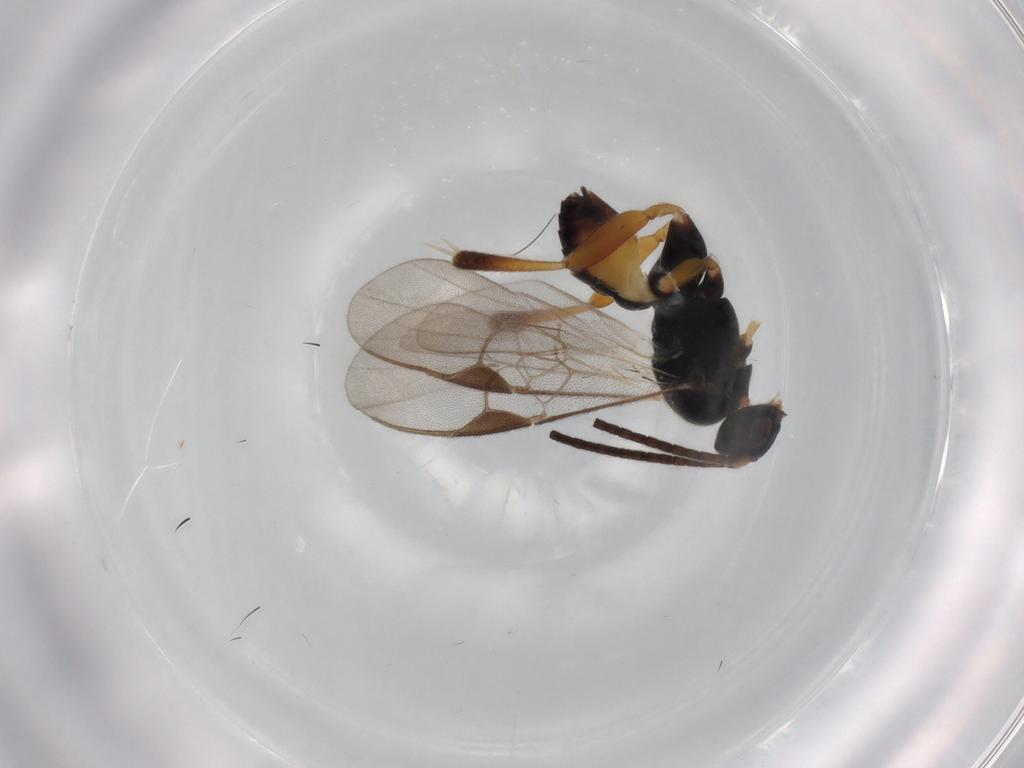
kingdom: Animalia
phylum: Arthropoda
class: Insecta
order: Hymenoptera
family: Braconidae
